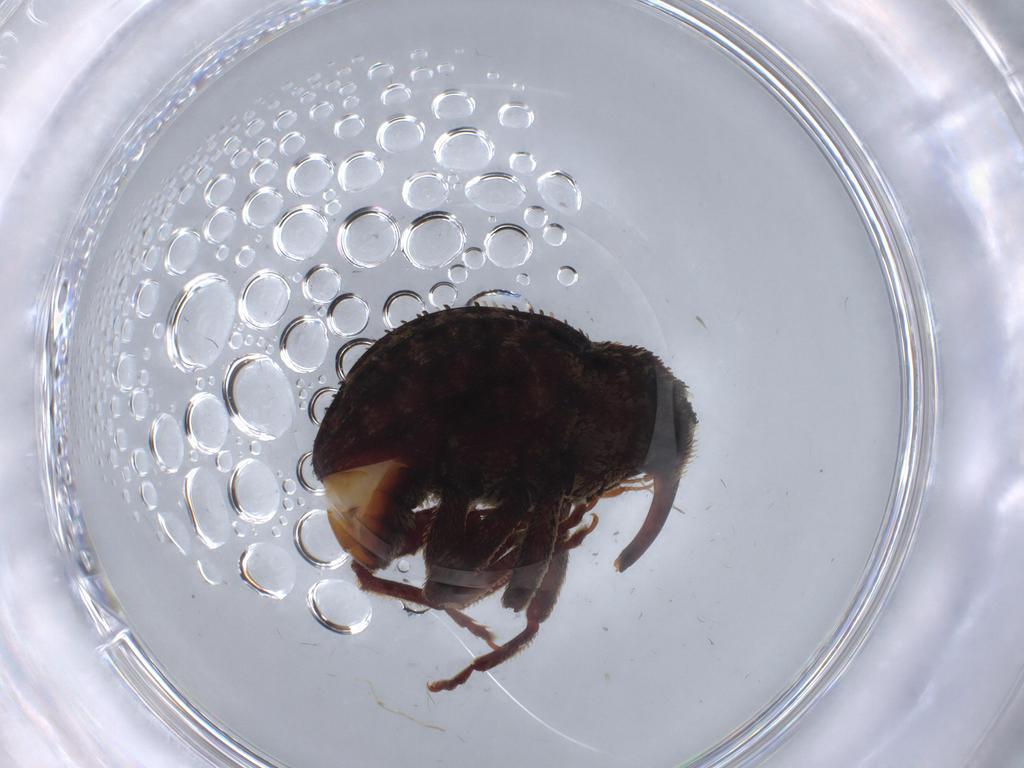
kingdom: Animalia
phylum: Arthropoda
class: Insecta
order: Coleoptera
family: Curculionidae
